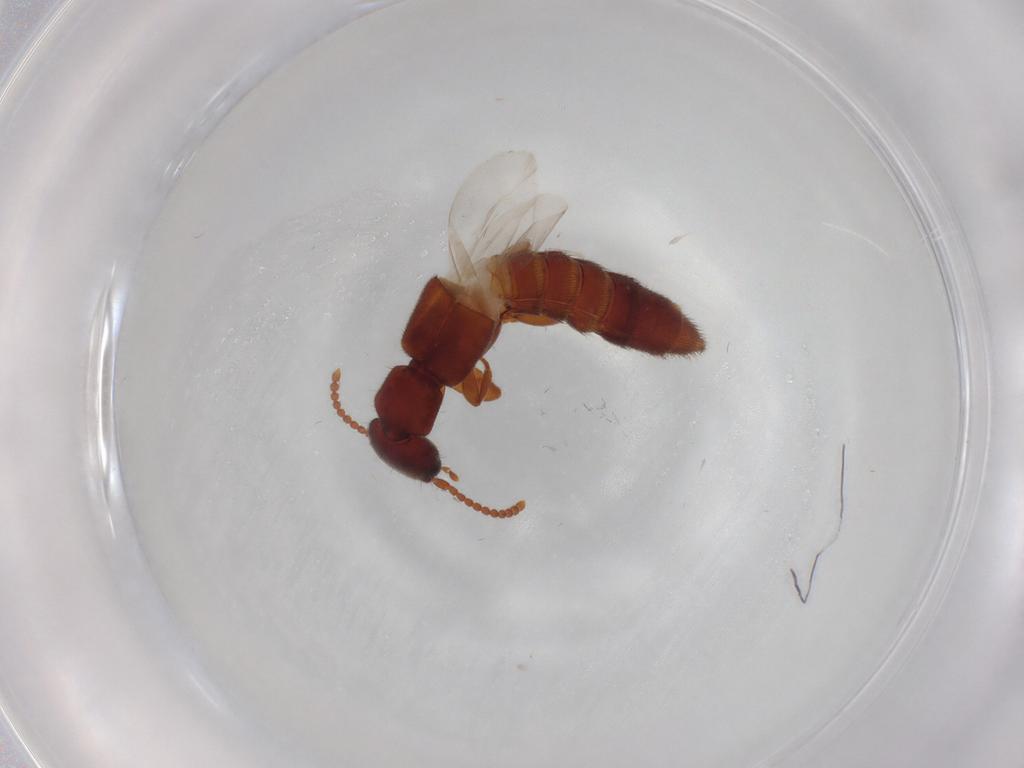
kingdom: Animalia
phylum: Arthropoda
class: Insecta
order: Coleoptera
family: Staphylinidae
